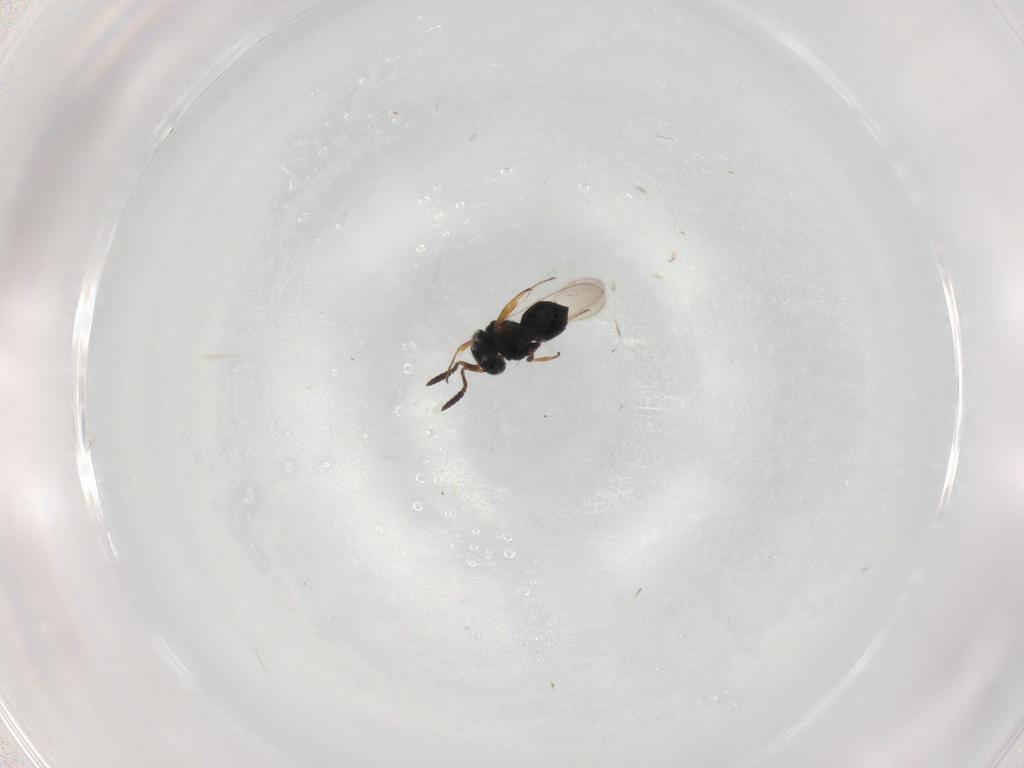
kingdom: Animalia
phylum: Arthropoda
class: Insecta
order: Hymenoptera
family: Scelionidae
